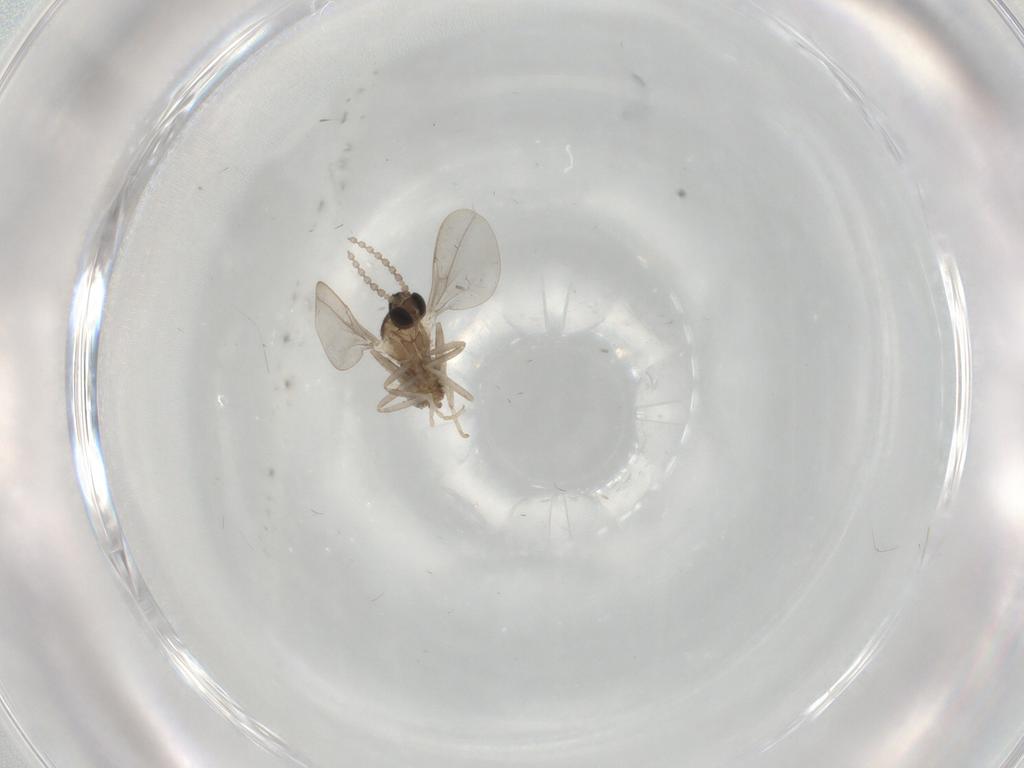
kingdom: Animalia
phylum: Arthropoda
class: Insecta
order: Diptera
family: Cecidomyiidae
